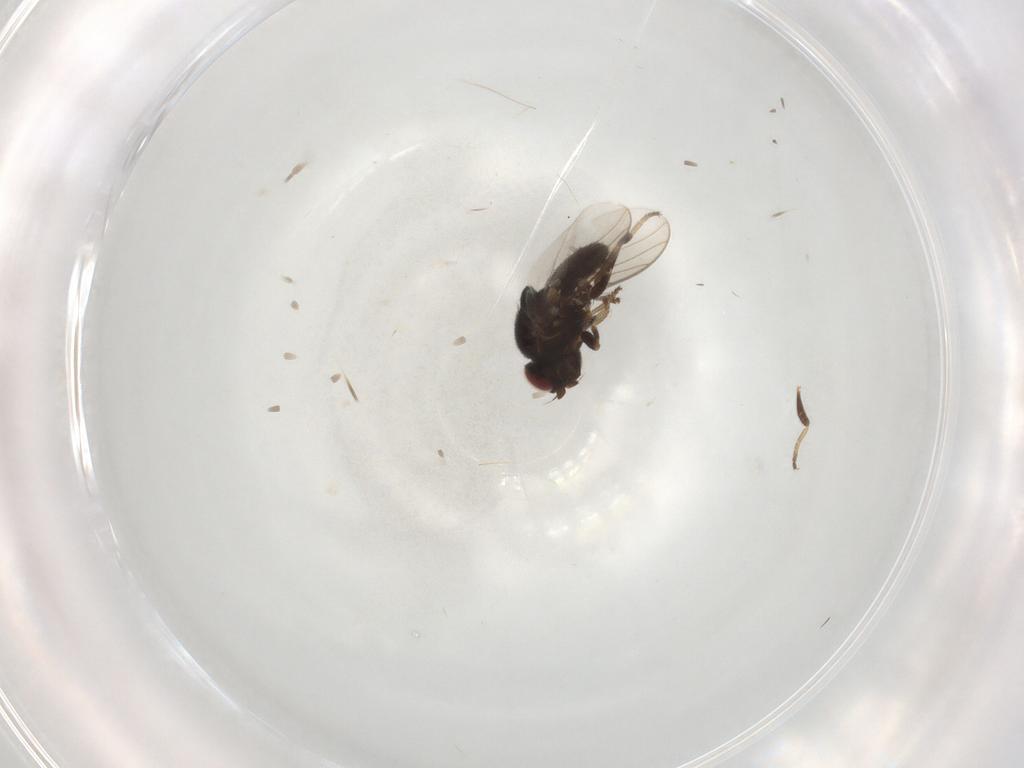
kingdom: Animalia
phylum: Arthropoda
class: Insecta
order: Diptera
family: Chloropidae
